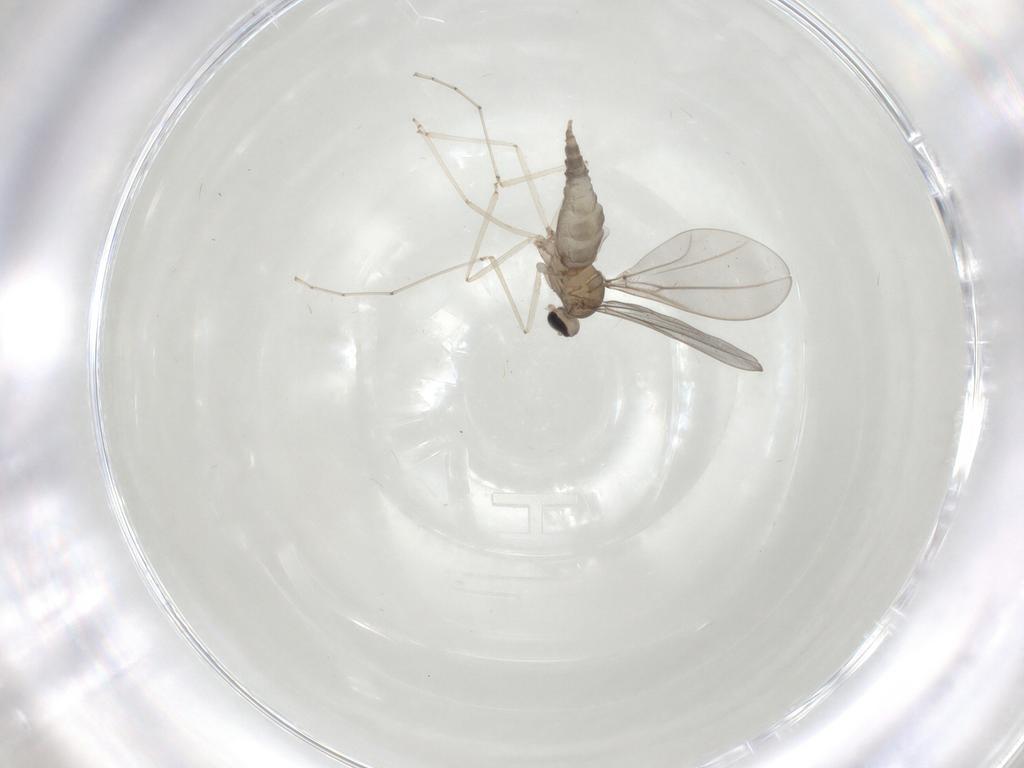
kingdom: Animalia
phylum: Arthropoda
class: Insecta
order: Diptera
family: Cecidomyiidae
